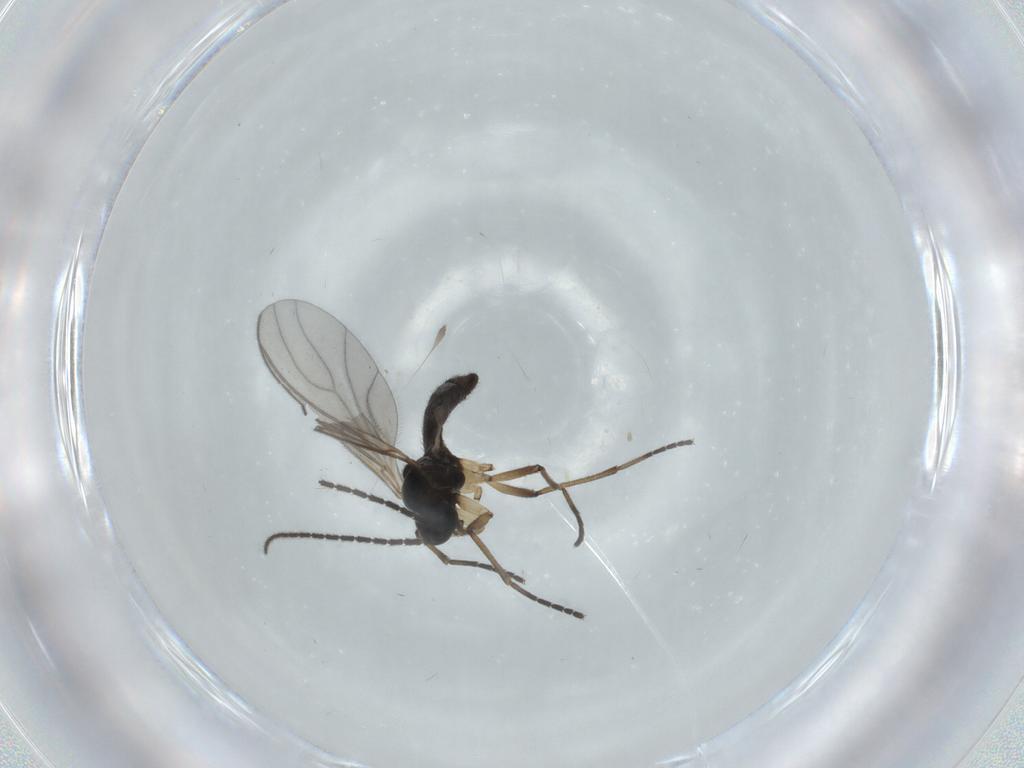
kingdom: Animalia
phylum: Arthropoda
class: Insecta
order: Diptera
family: Sciaridae
